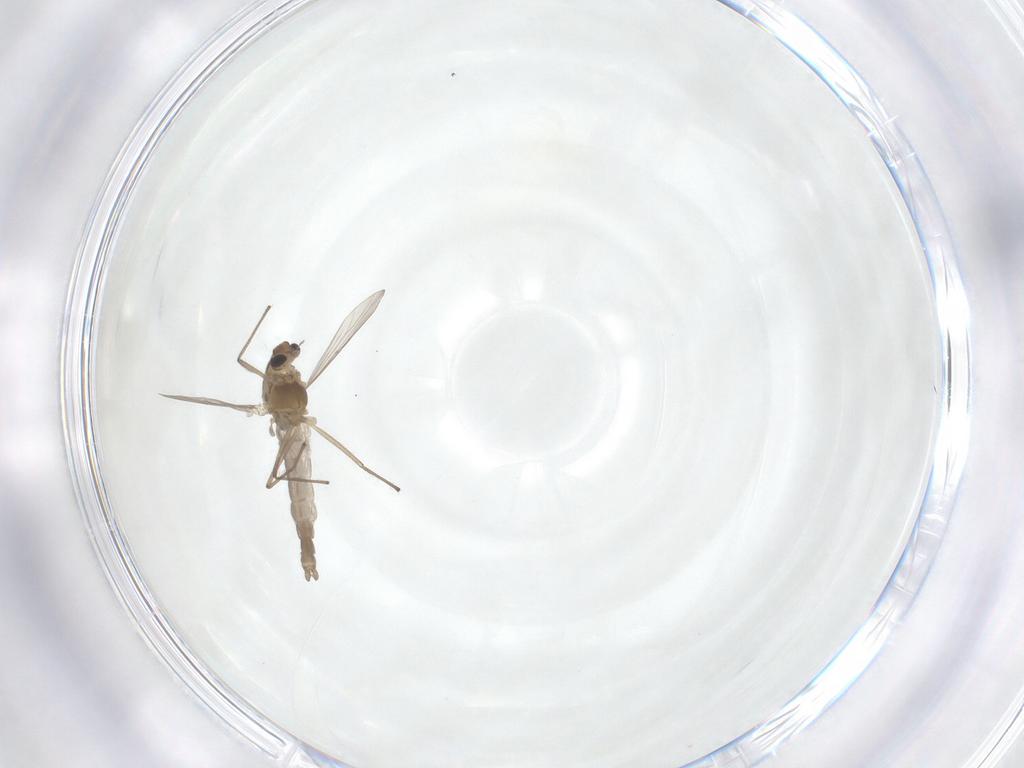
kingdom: Animalia
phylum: Arthropoda
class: Insecta
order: Diptera
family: Chironomidae
